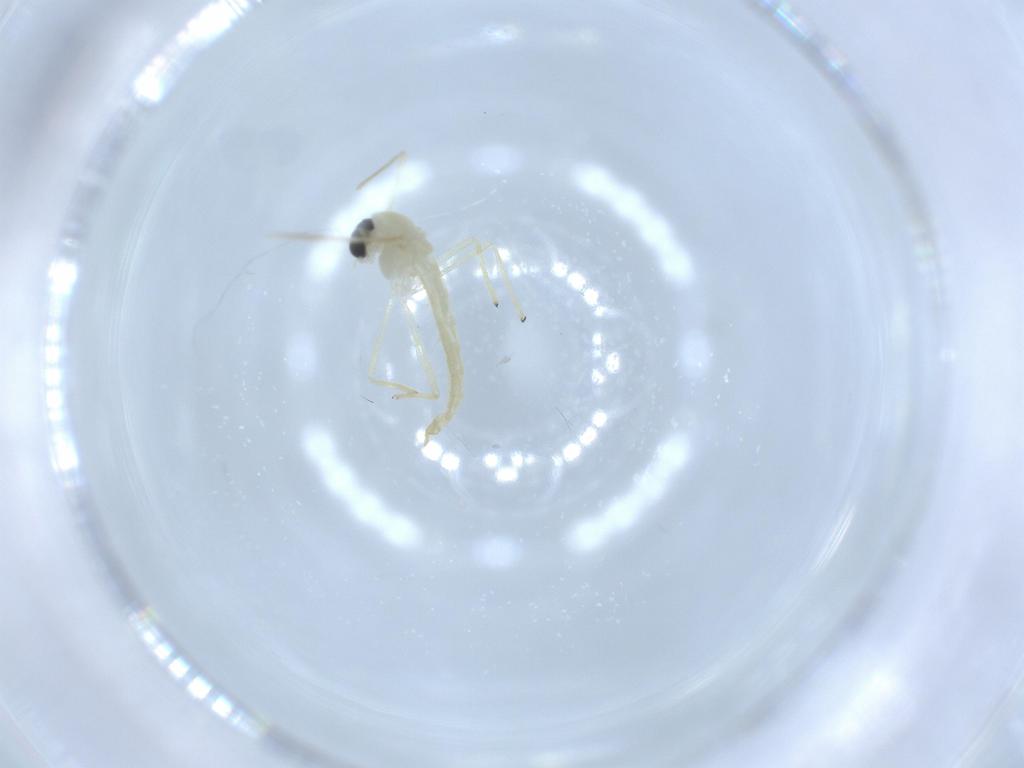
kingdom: Animalia
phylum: Arthropoda
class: Insecta
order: Diptera
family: Chironomidae
